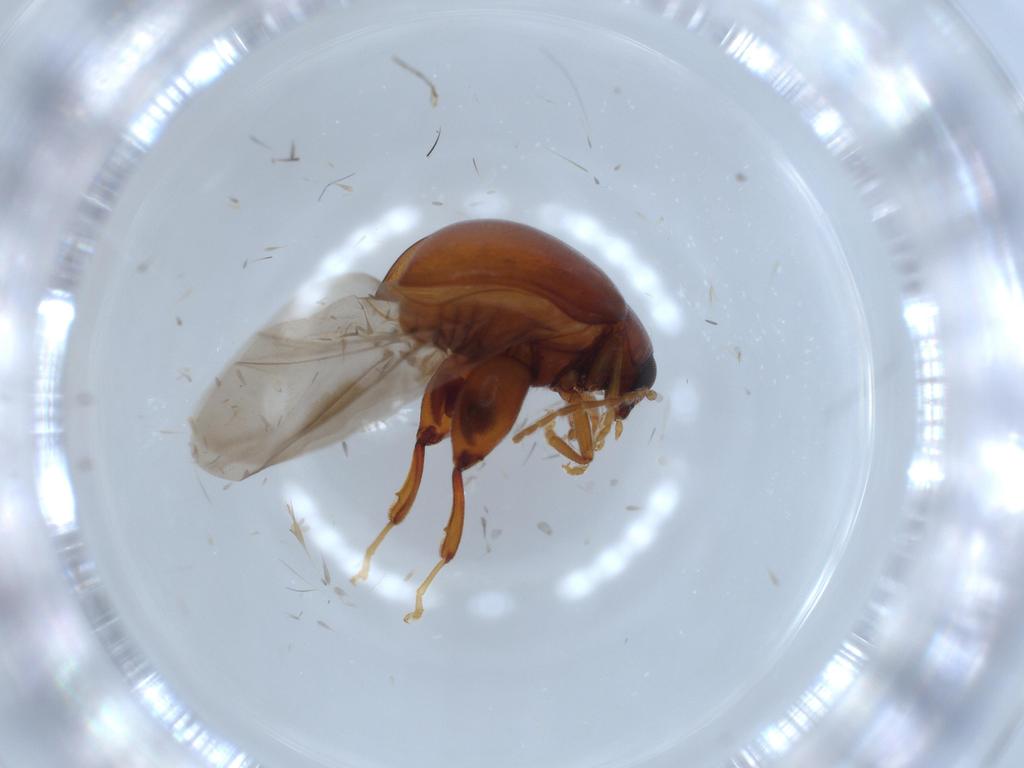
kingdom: Animalia
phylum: Arthropoda
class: Insecta
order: Coleoptera
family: Chrysomelidae
